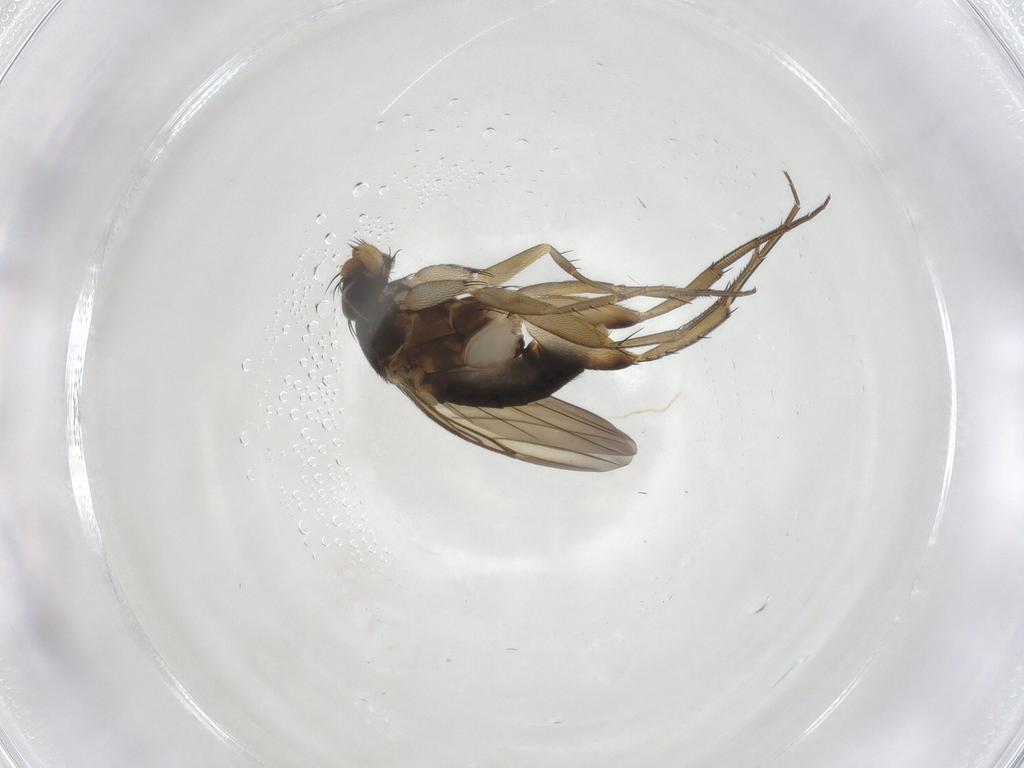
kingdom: Animalia
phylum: Arthropoda
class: Insecta
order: Diptera
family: Phoridae
